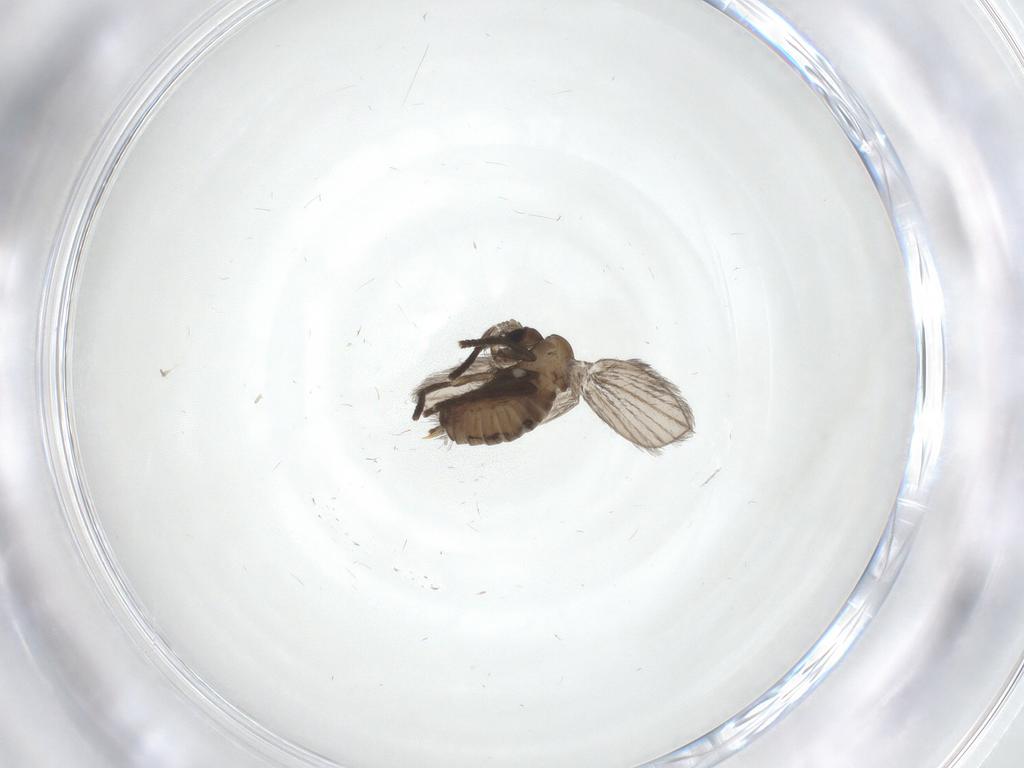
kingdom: Animalia
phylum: Arthropoda
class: Insecta
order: Diptera
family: Psychodidae
